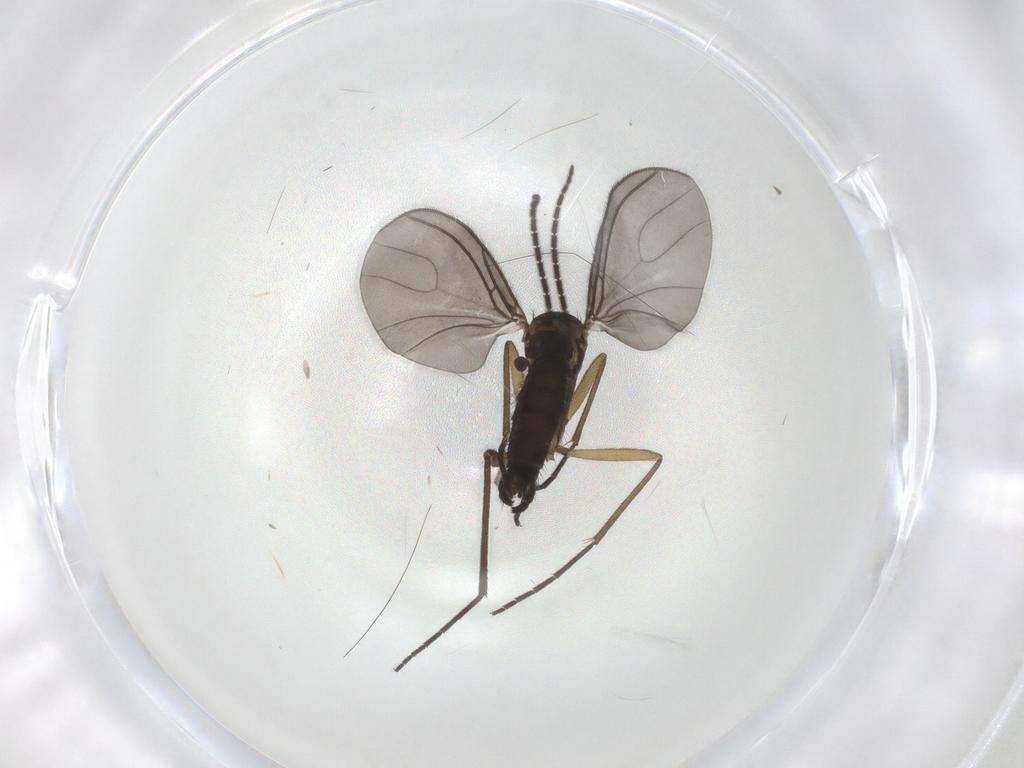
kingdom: Animalia
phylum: Arthropoda
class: Insecta
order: Diptera
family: Sciaridae
